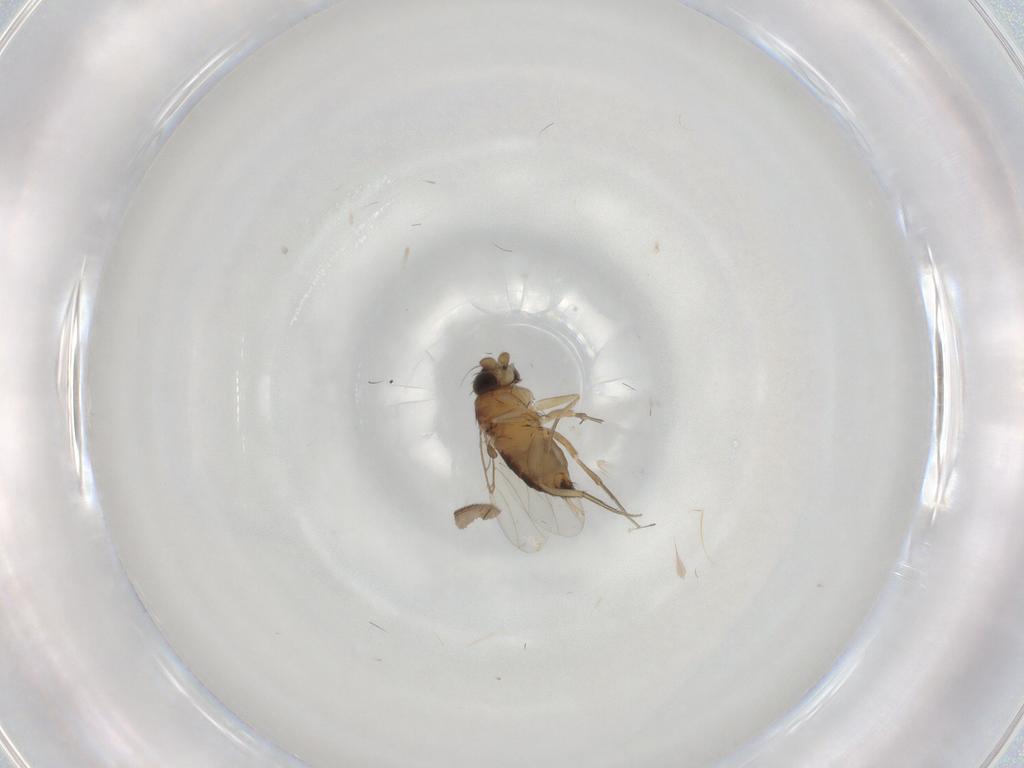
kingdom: Animalia
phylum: Arthropoda
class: Insecta
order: Diptera
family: Phoridae
